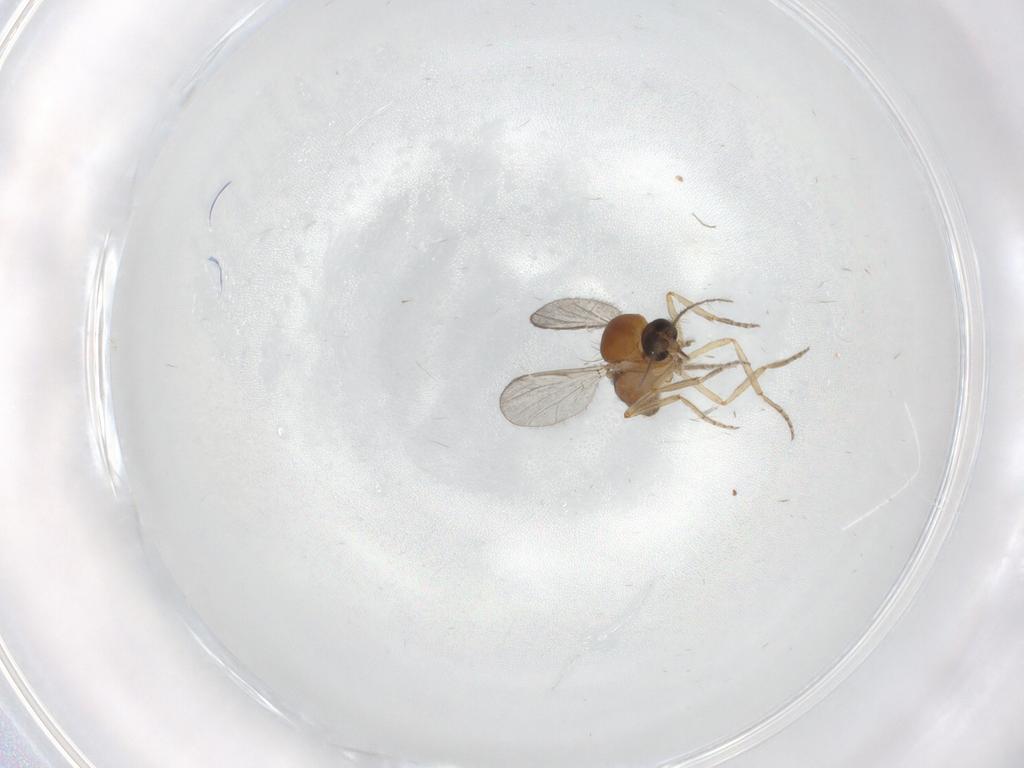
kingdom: Animalia
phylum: Arthropoda
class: Insecta
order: Diptera
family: Ceratopogonidae
